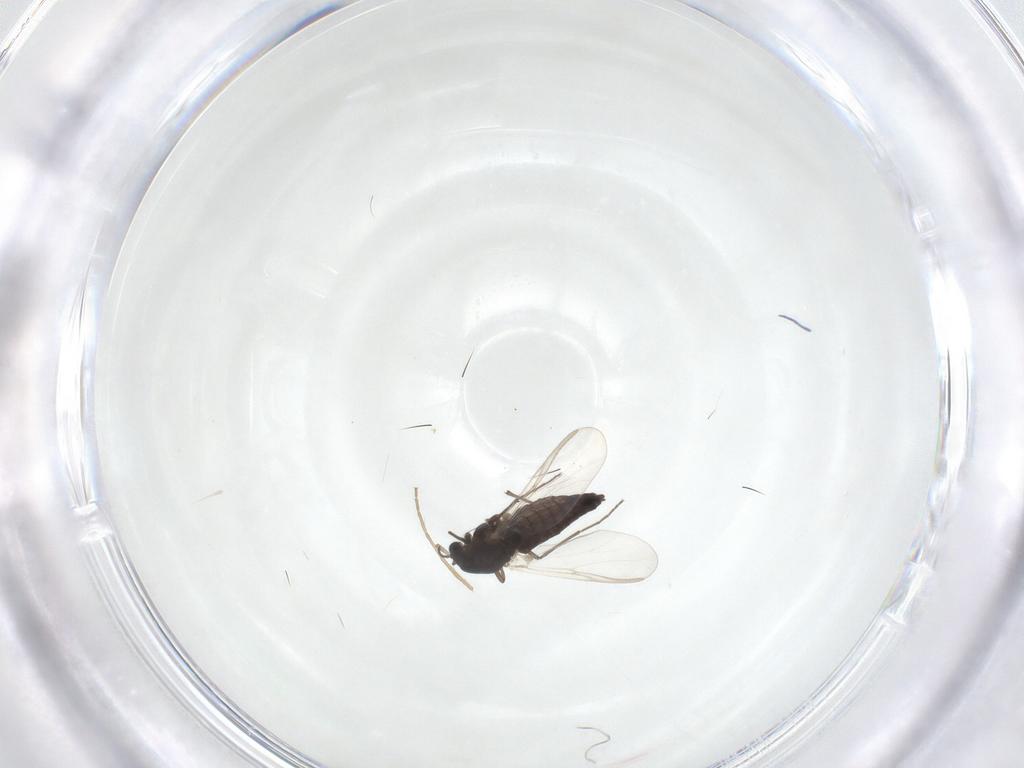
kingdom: Animalia
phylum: Arthropoda
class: Insecta
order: Diptera
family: Chironomidae
